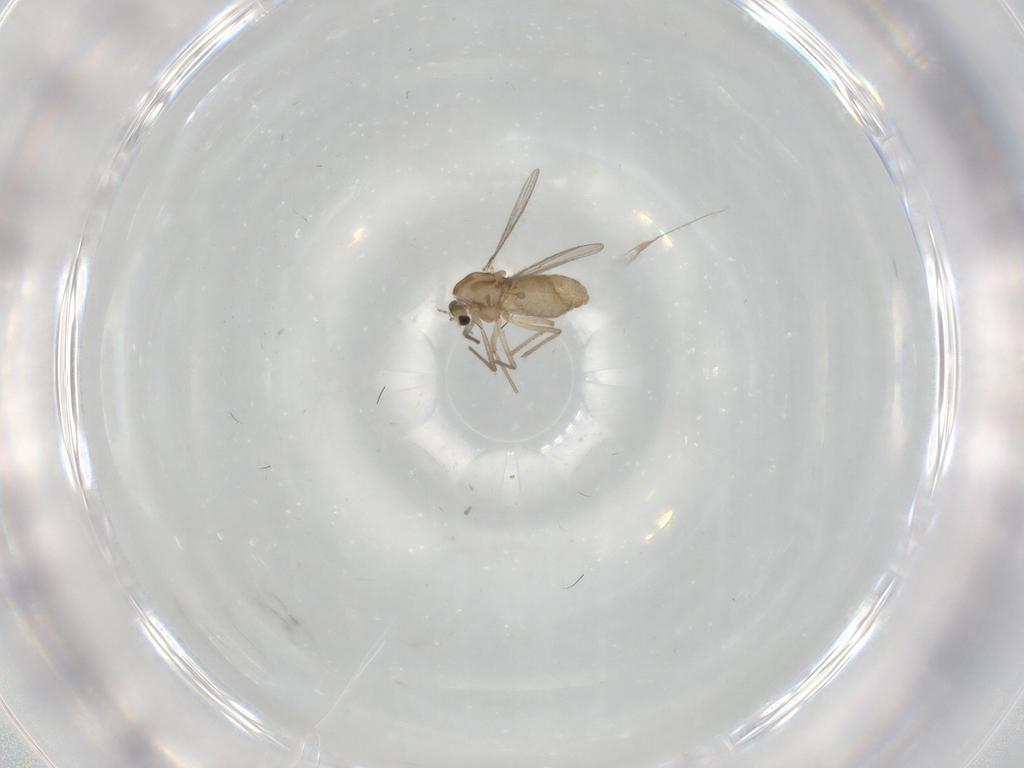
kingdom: Animalia
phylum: Arthropoda
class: Insecta
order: Diptera
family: Chironomidae
